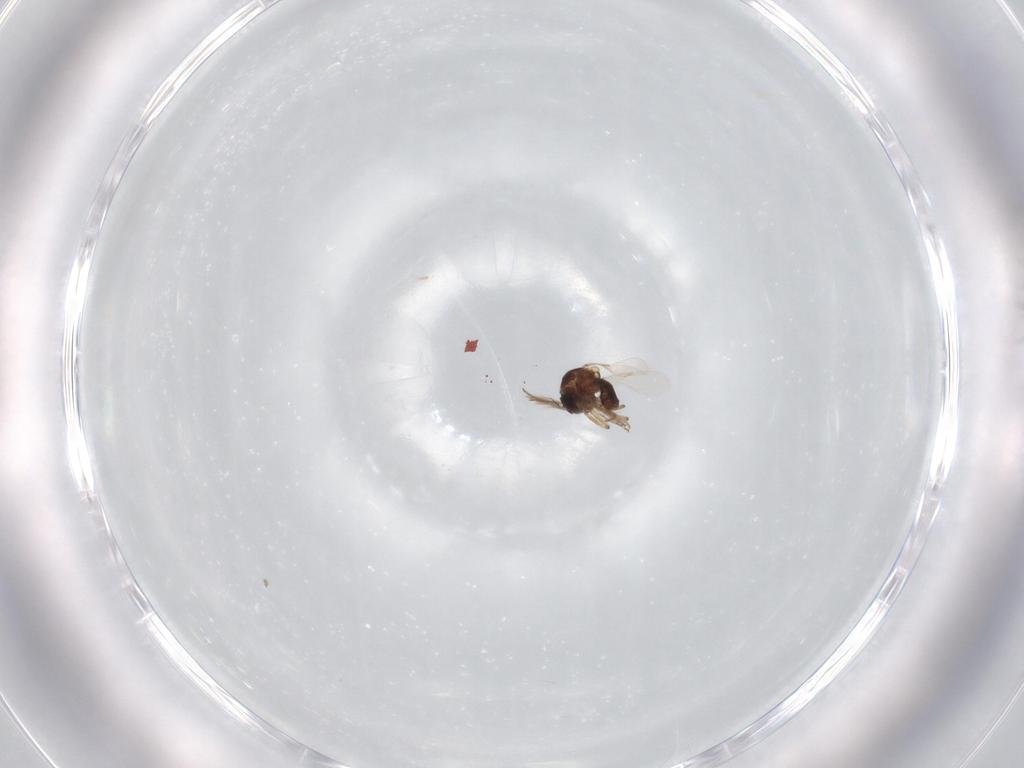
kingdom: Animalia
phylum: Arthropoda
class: Insecta
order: Diptera
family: Ceratopogonidae
